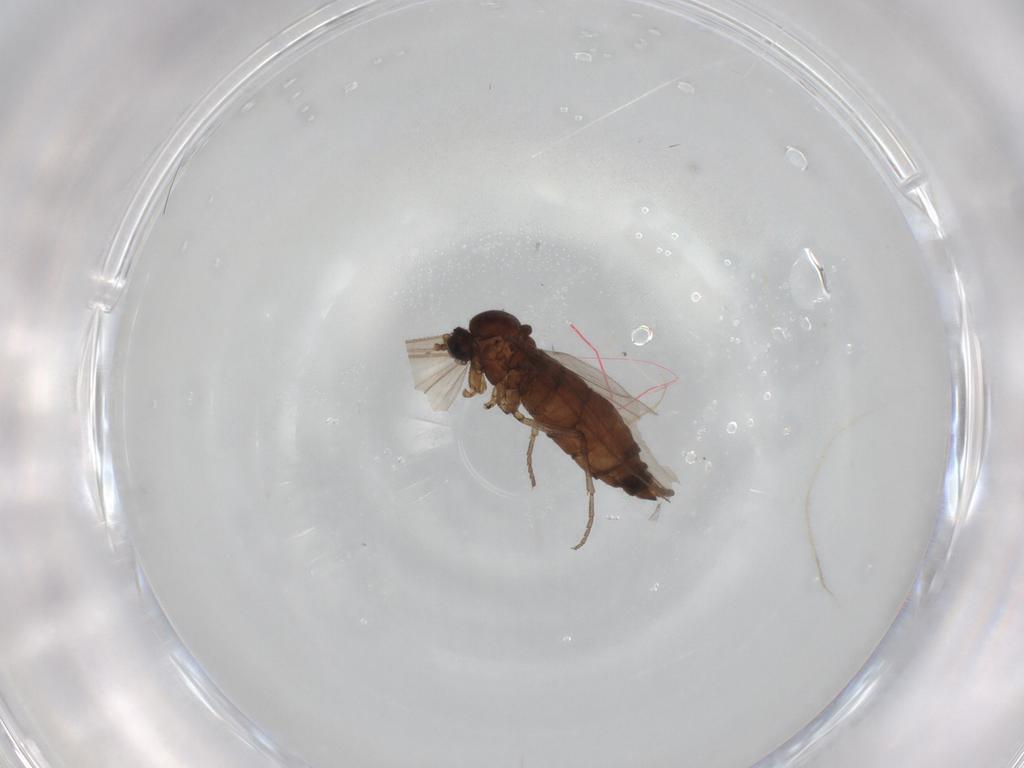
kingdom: Animalia
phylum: Arthropoda
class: Insecta
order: Diptera
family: Sciaridae
